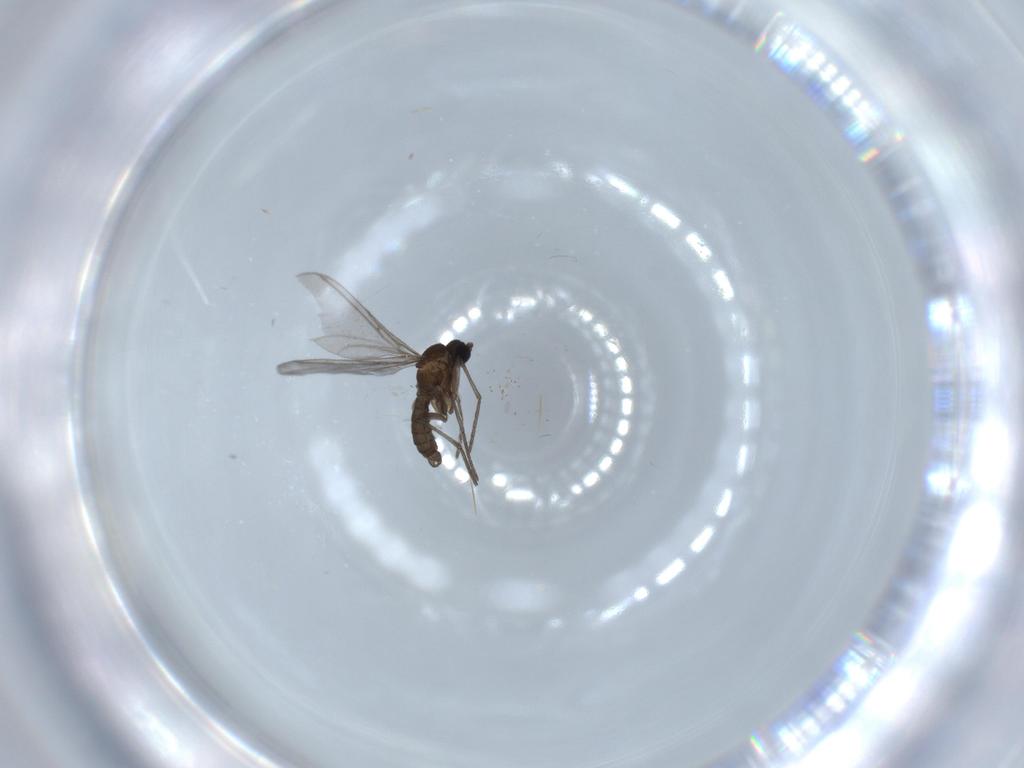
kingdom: Animalia
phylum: Arthropoda
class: Insecta
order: Diptera
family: Sciaridae
